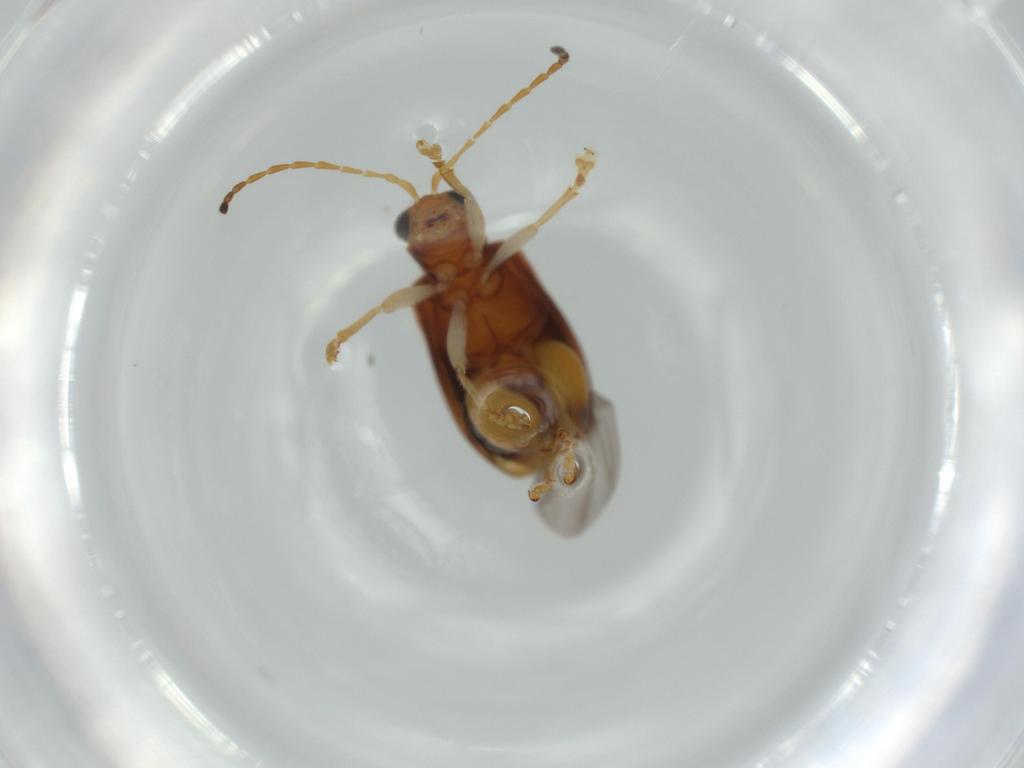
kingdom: Animalia
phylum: Arthropoda
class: Insecta
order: Coleoptera
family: Chrysomelidae
